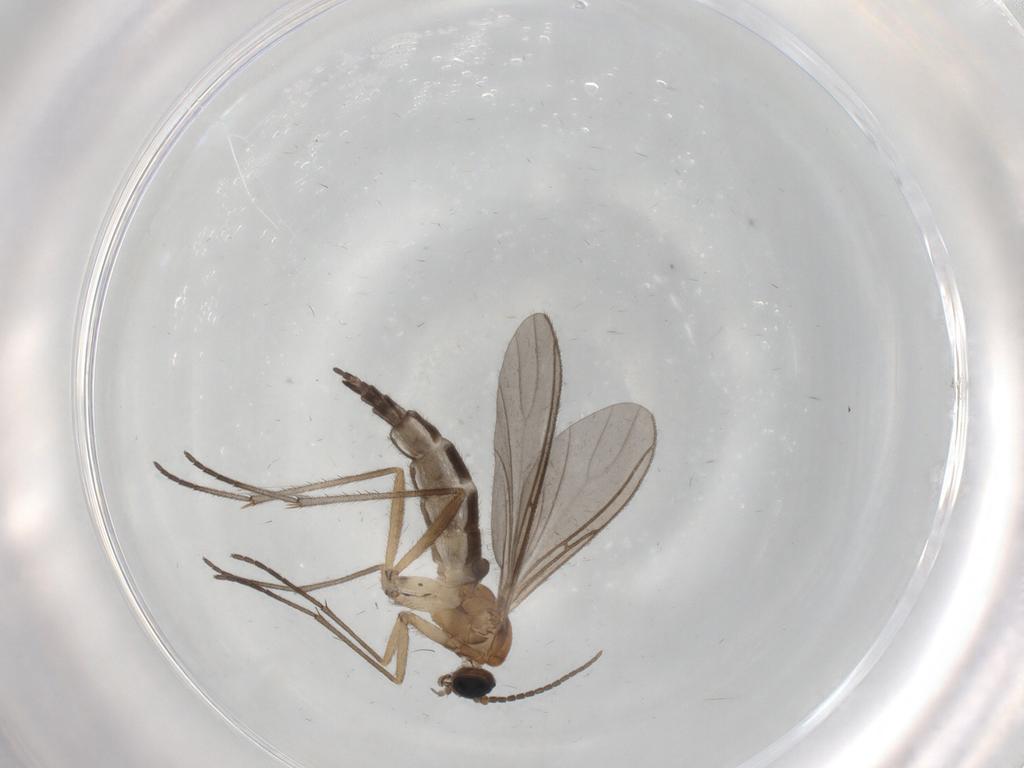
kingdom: Animalia
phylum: Arthropoda
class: Insecta
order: Diptera
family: Sciaridae
